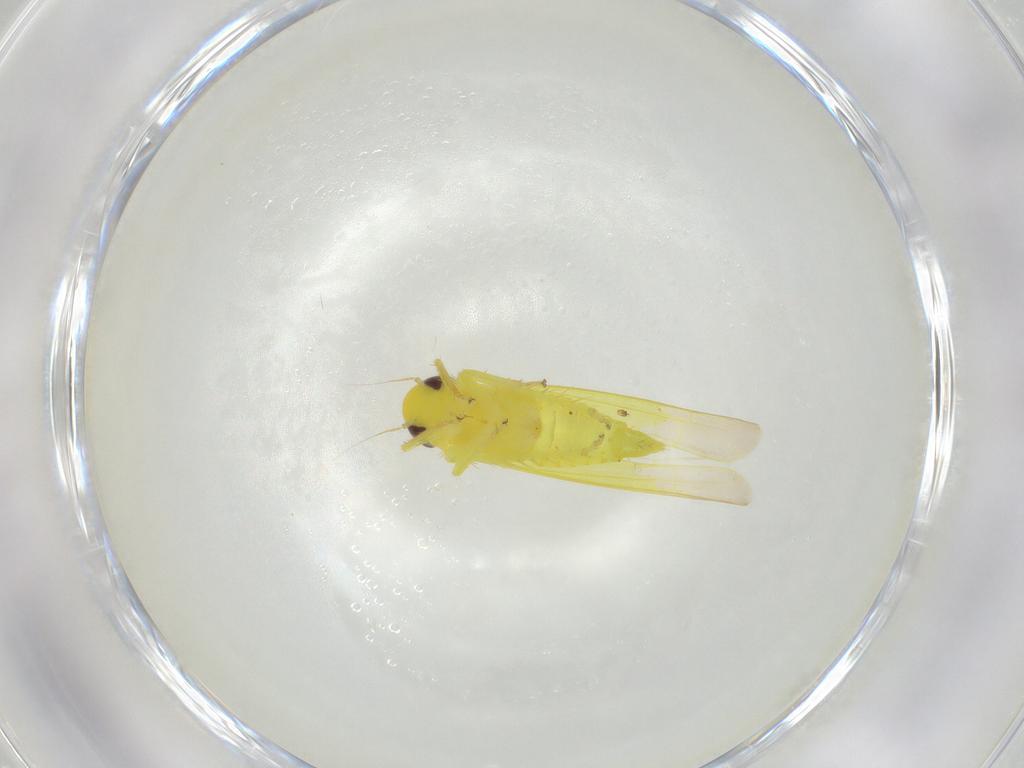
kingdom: Animalia
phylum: Arthropoda
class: Insecta
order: Hemiptera
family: Cicadellidae
